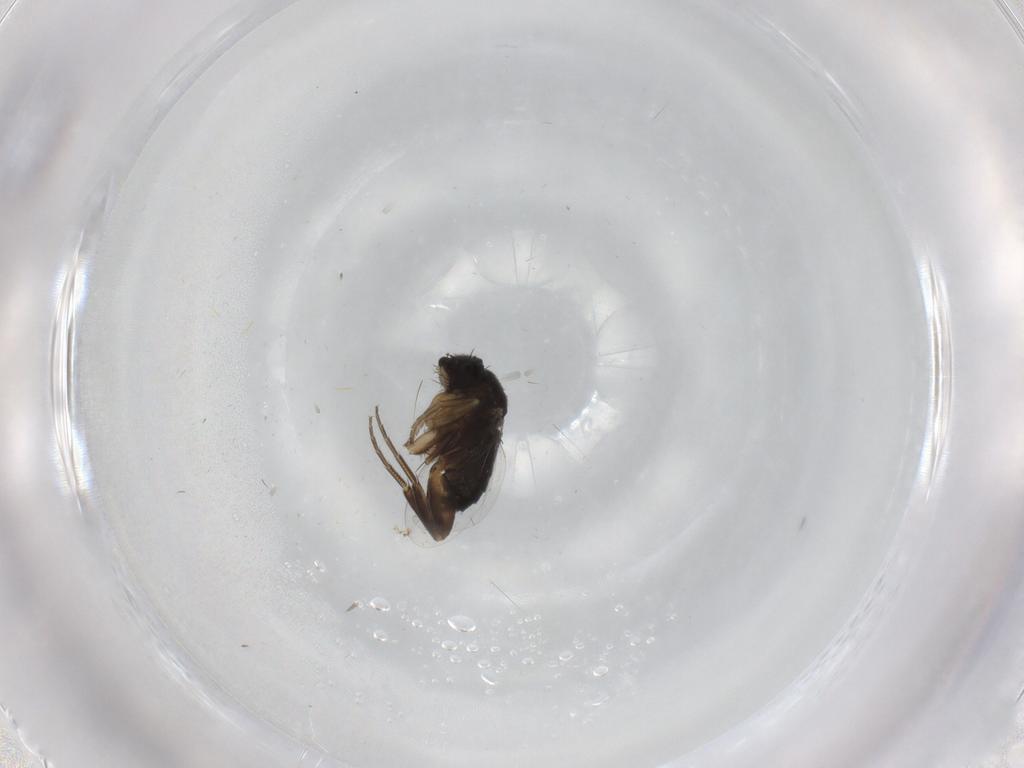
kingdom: Animalia
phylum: Arthropoda
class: Insecta
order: Diptera
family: Phoridae
